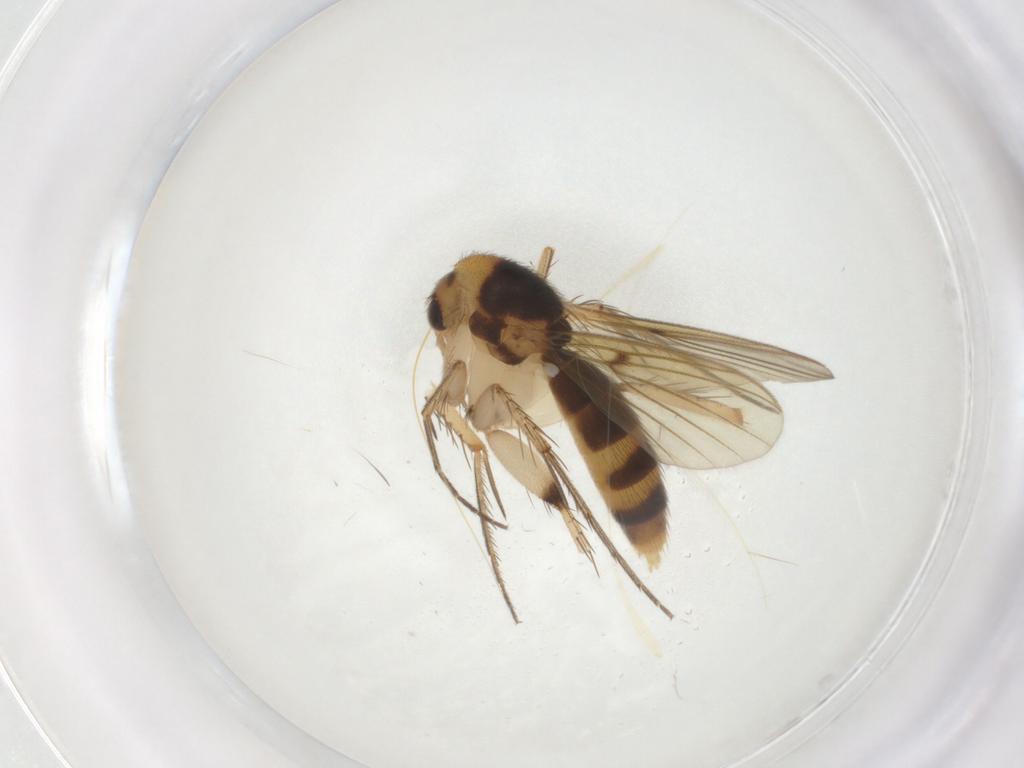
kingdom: Animalia
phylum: Arthropoda
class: Insecta
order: Diptera
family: Mycetophilidae
